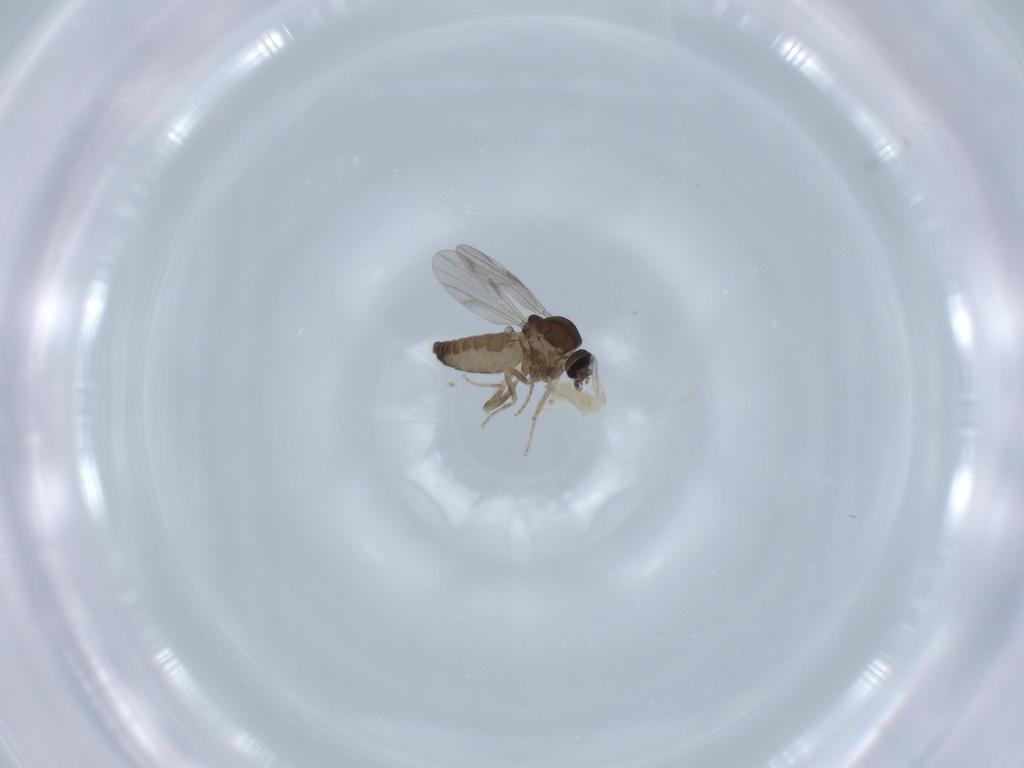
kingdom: Animalia
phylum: Arthropoda
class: Insecta
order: Diptera
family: Ceratopogonidae
